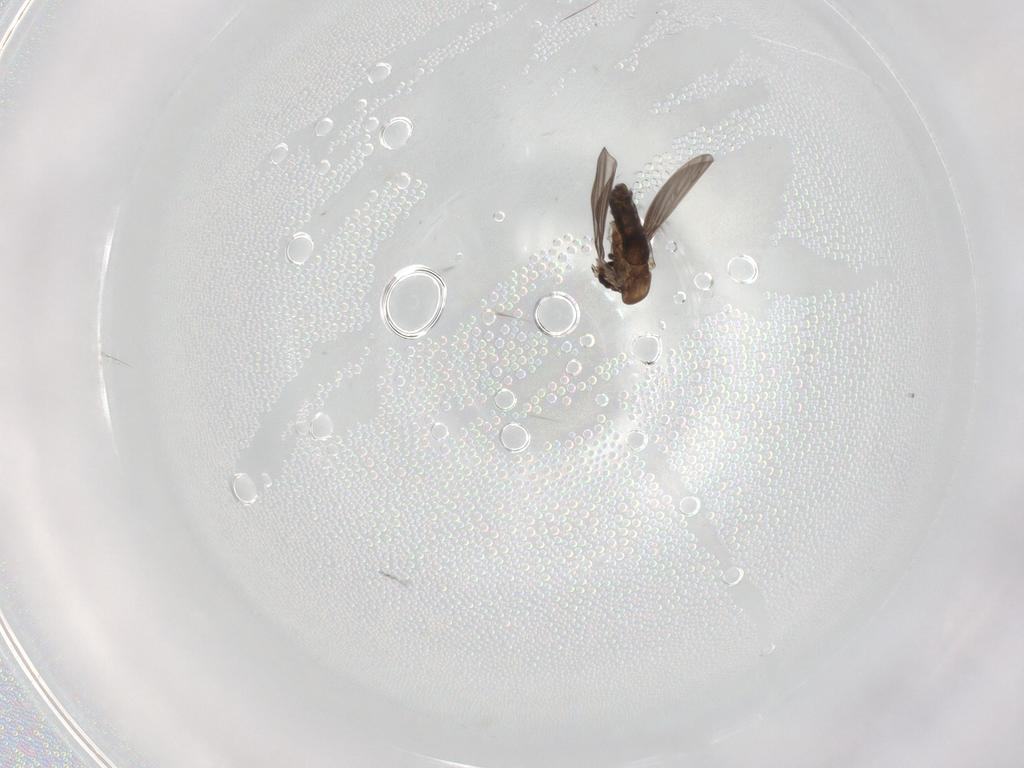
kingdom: Animalia
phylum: Arthropoda
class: Insecta
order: Diptera
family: Psychodidae
